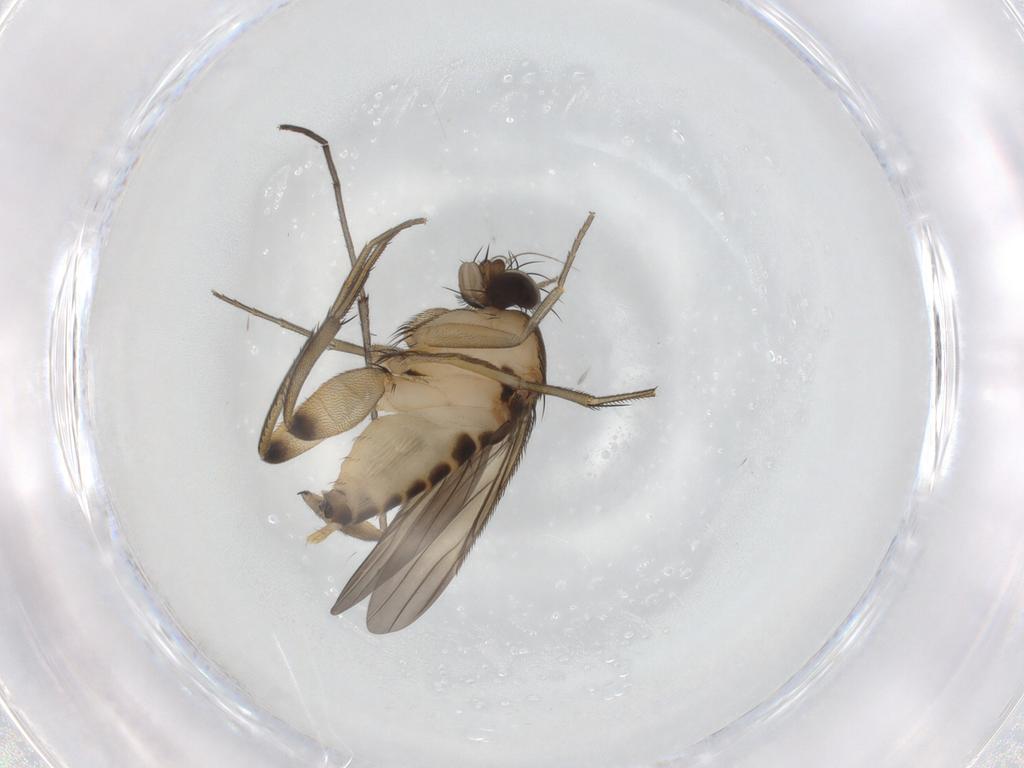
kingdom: Animalia
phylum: Arthropoda
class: Insecta
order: Diptera
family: Phoridae
